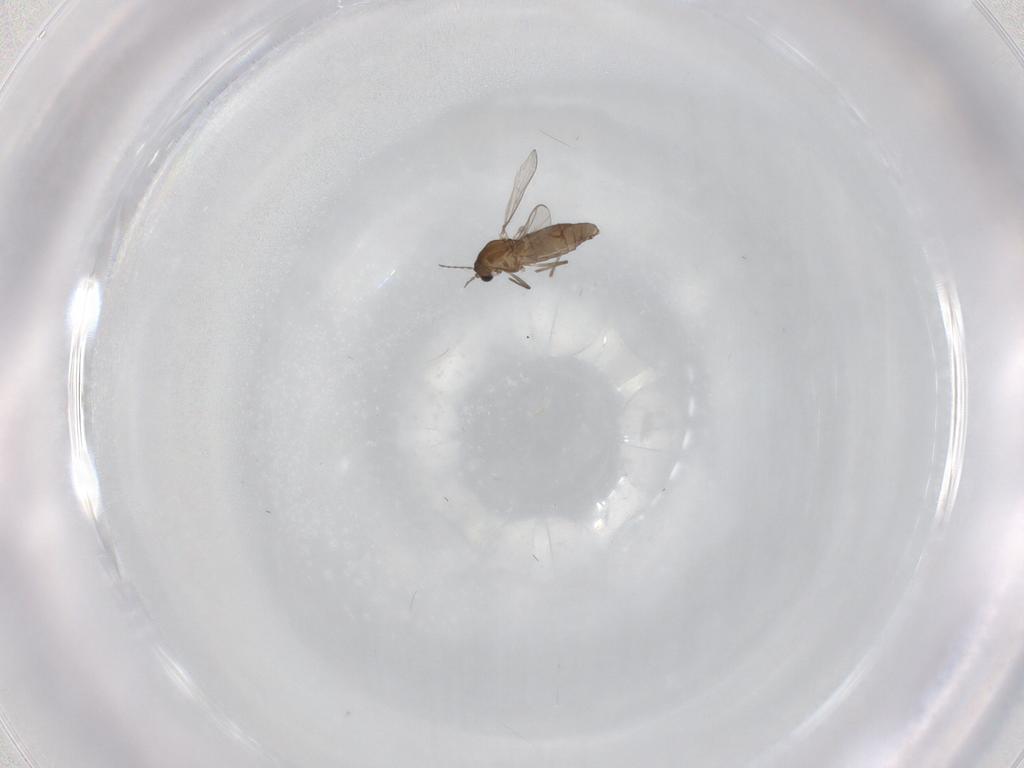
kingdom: Animalia
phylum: Arthropoda
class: Insecta
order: Diptera
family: Chironomidae
